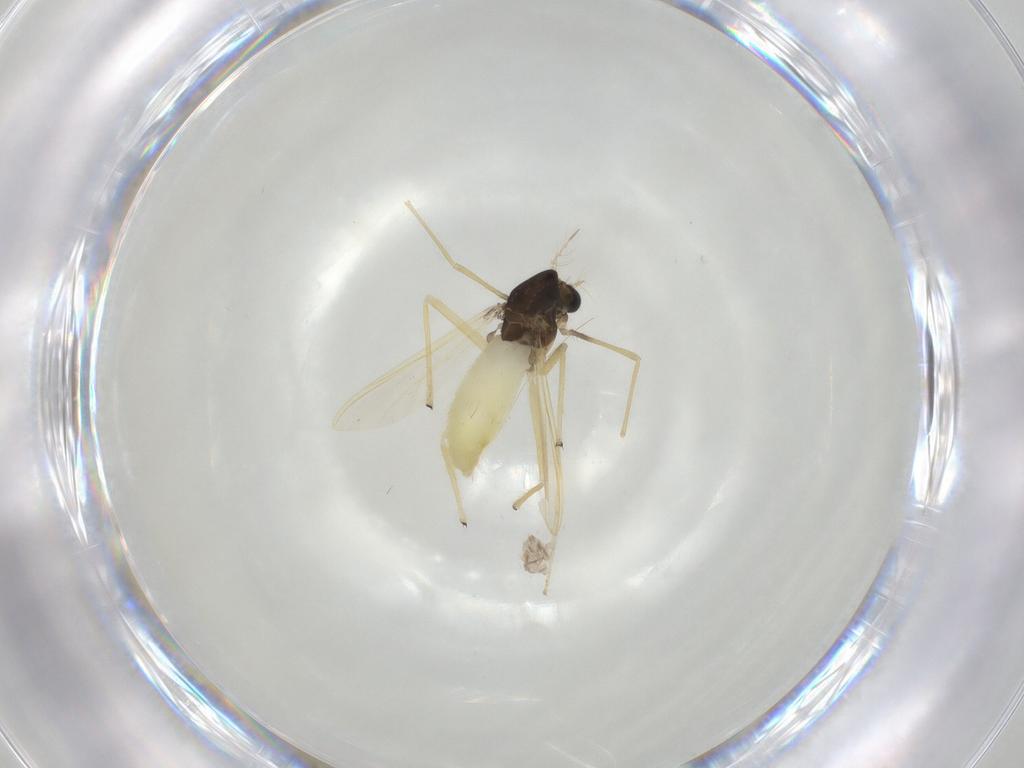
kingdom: Animalia
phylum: Arthropoda
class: Insecta
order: Diptera
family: Chironomidae
